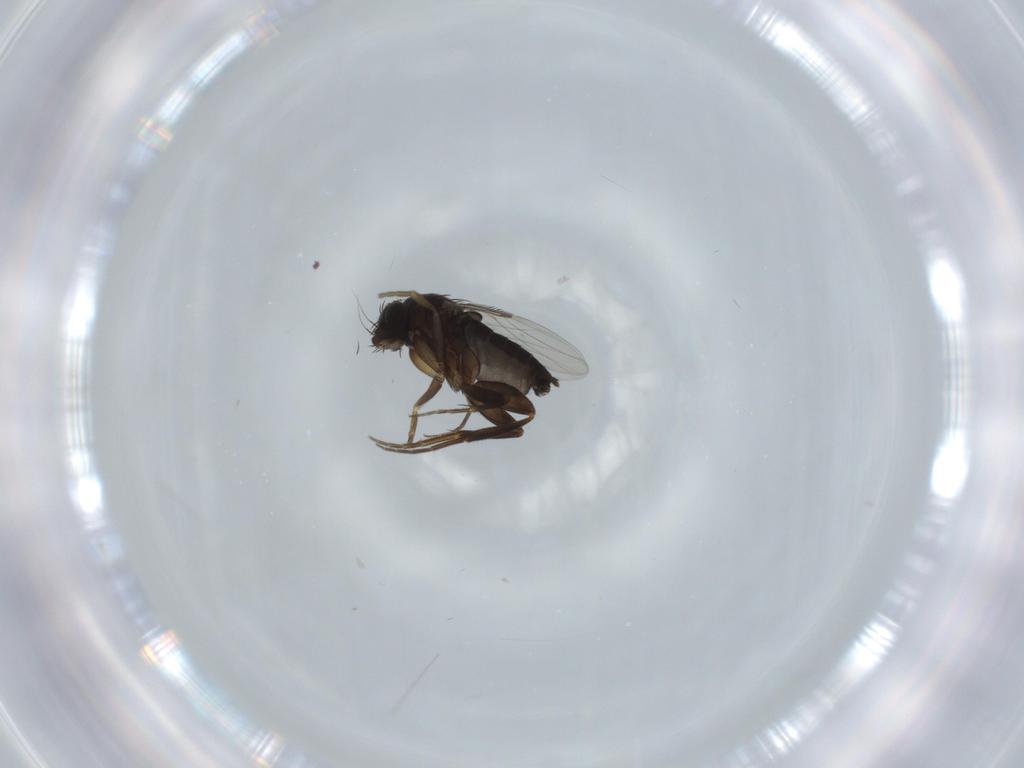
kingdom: Animalia
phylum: Arthropoda
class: Insecta
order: Diptera
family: Phoridae
